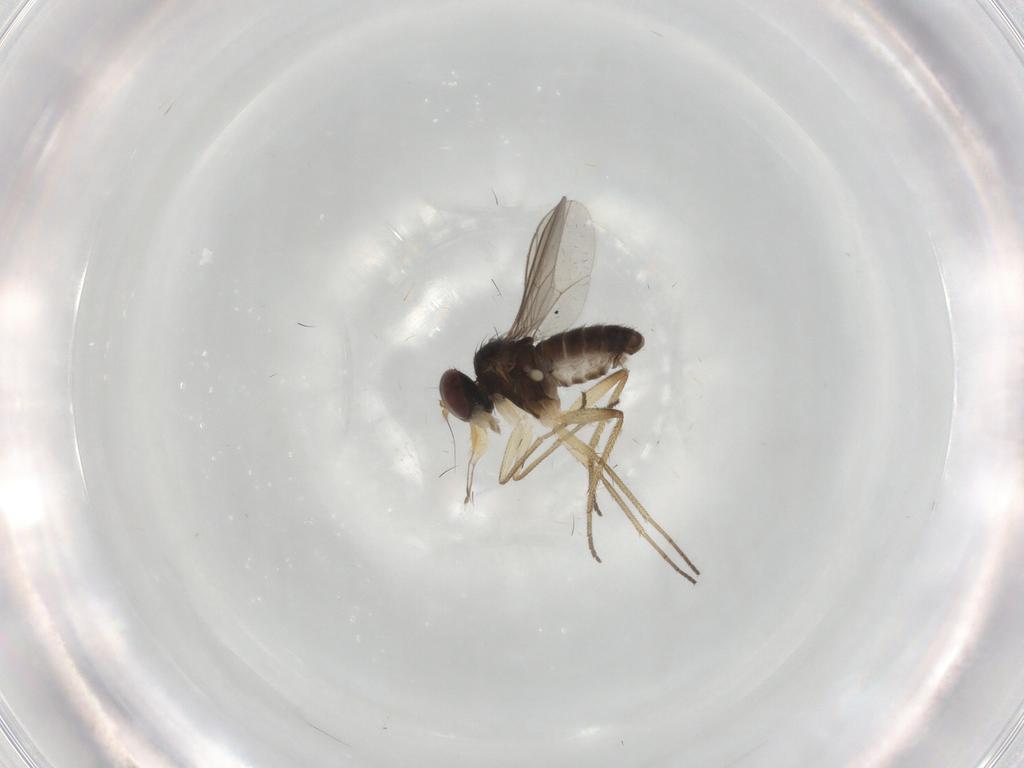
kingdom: Animalia
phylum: Arthropoda
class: Insecta
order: Diptera
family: Dolichopodidae
